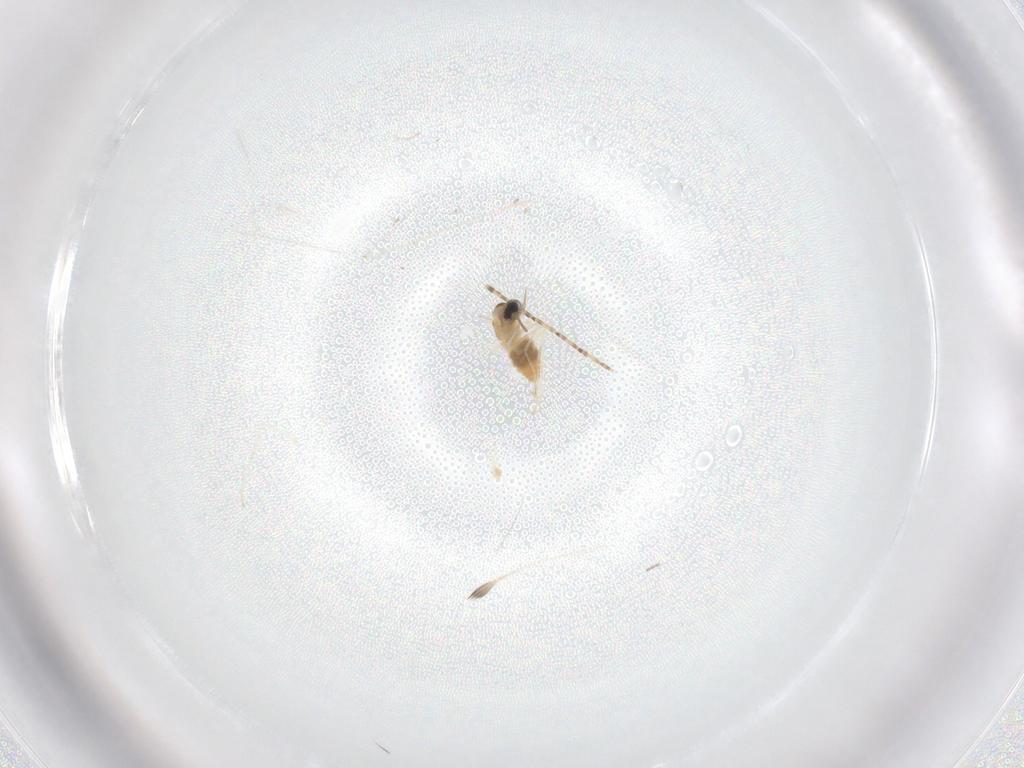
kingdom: Animalia
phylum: Arthropoda
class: Insecta
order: Diptera
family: Cecidomyiidae
